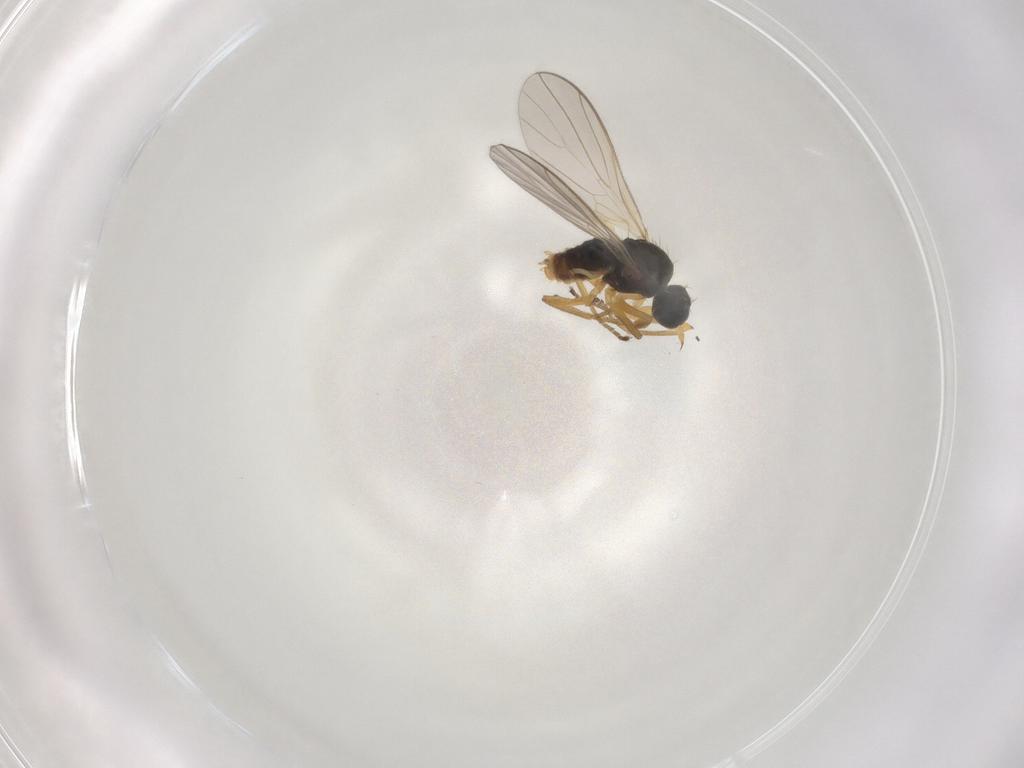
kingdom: Animalia
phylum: Arthropoda
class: Insecta
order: Diptera
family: Hybotidae
